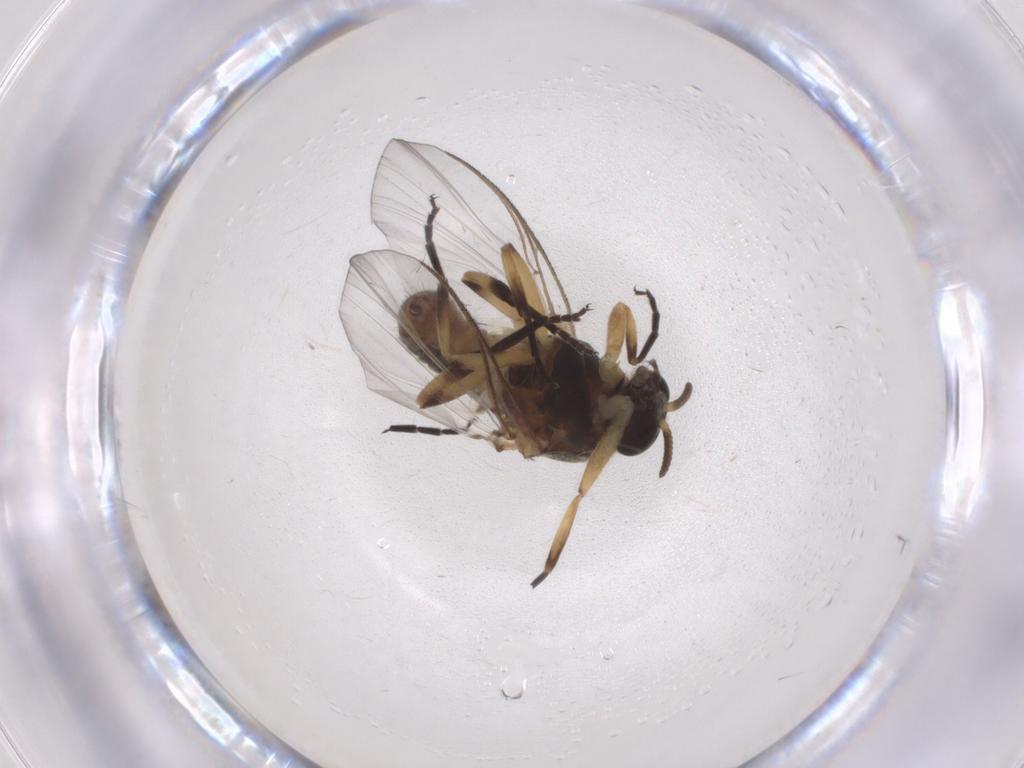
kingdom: Animalia
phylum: Arthropoda
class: Insecta
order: Diptera
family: Simuliidae
